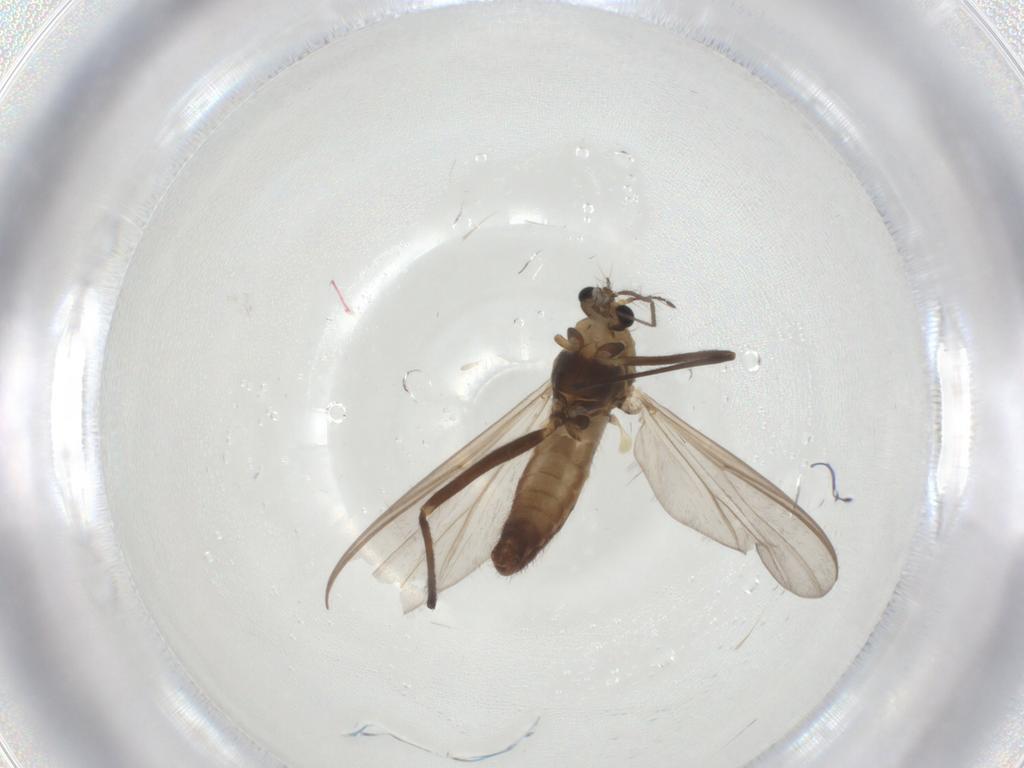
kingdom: Animalia
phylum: Arthropoda
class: Insecta
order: Diptera
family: Chironomidae
